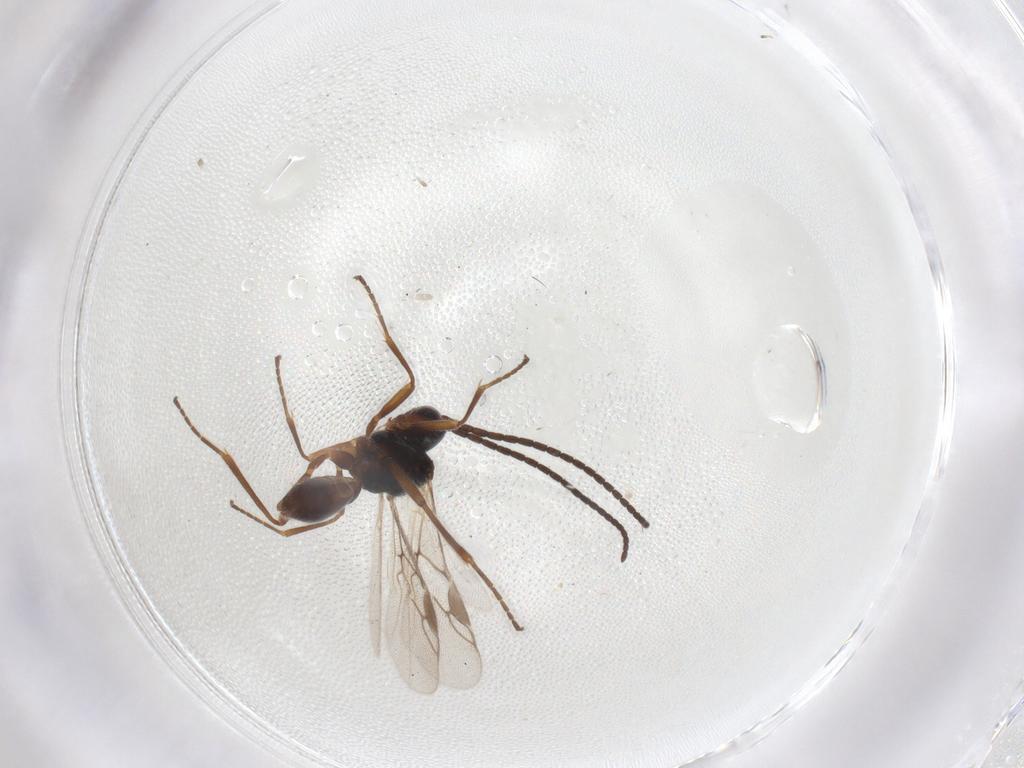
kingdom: Animalia
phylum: Arthropoda
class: Insecta
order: Hymenoptera
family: Braconidae
